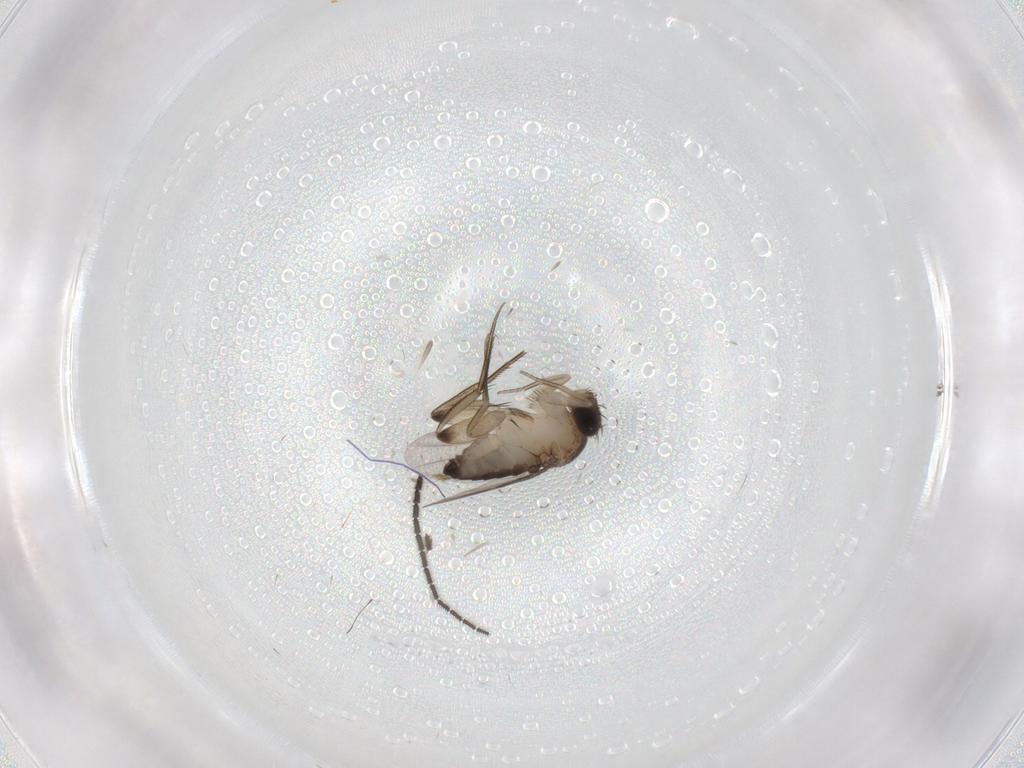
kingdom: Animalia
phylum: Arthropoda
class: Insecta
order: Diptera
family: Phoridae
